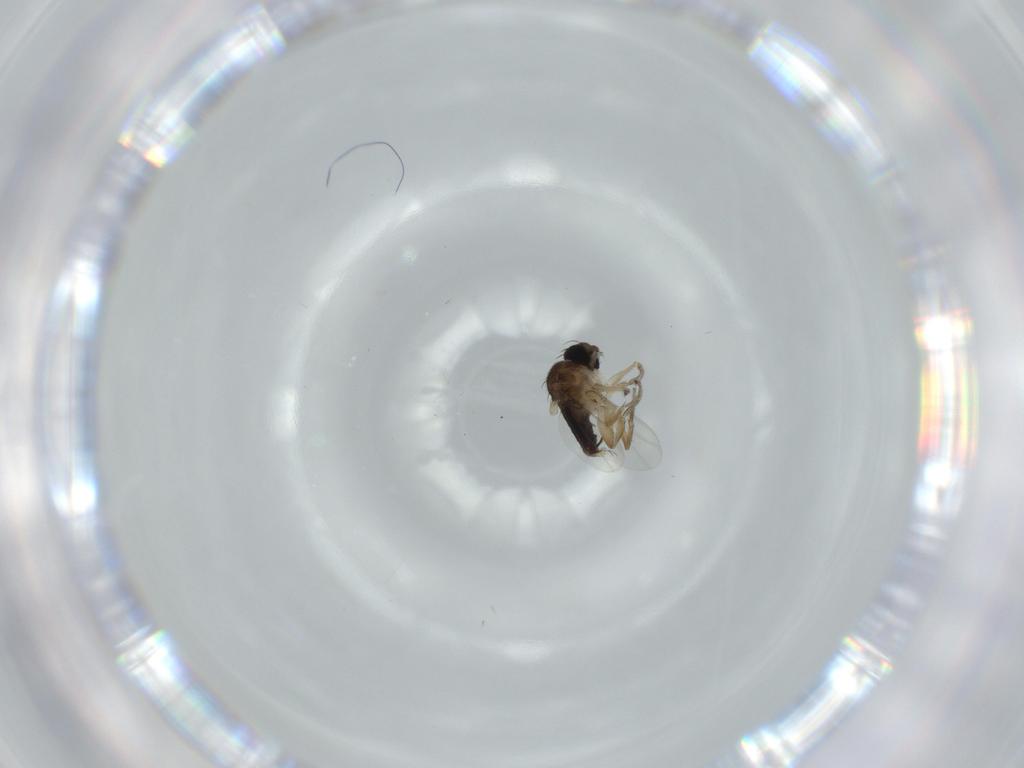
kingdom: Animalia
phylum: Arthropoda
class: Insecta
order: Diptera
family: Phoridae
